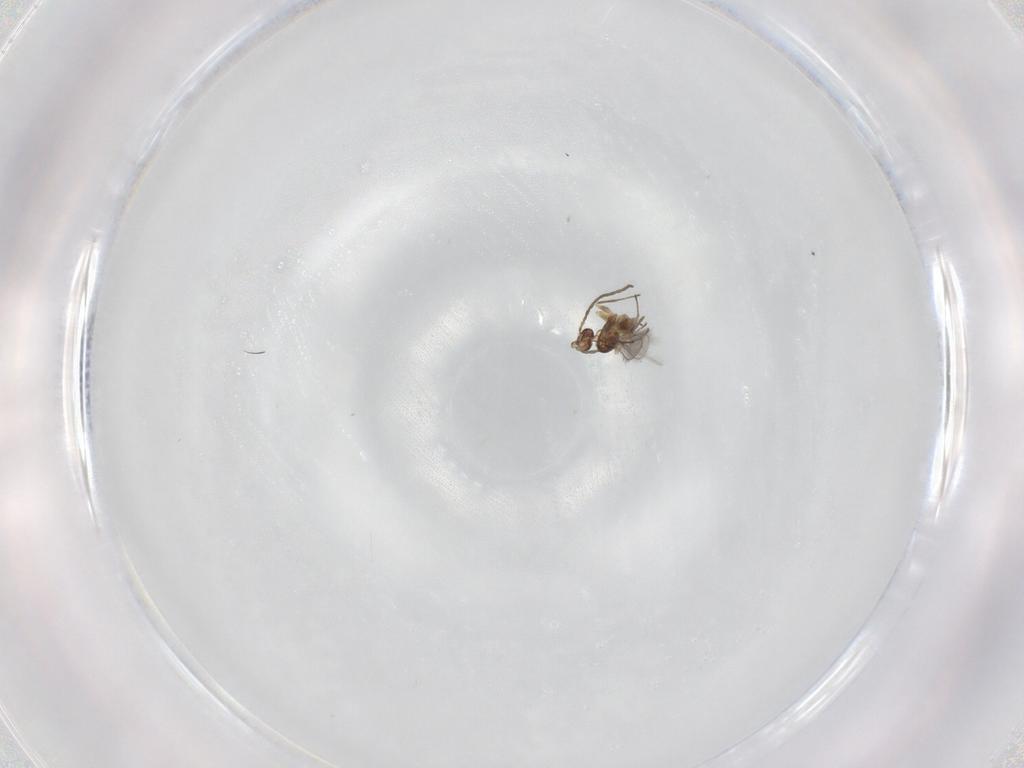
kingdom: Animalia
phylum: Arthropoda
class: Insecta
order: Hymenoptera
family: Mymaridae
